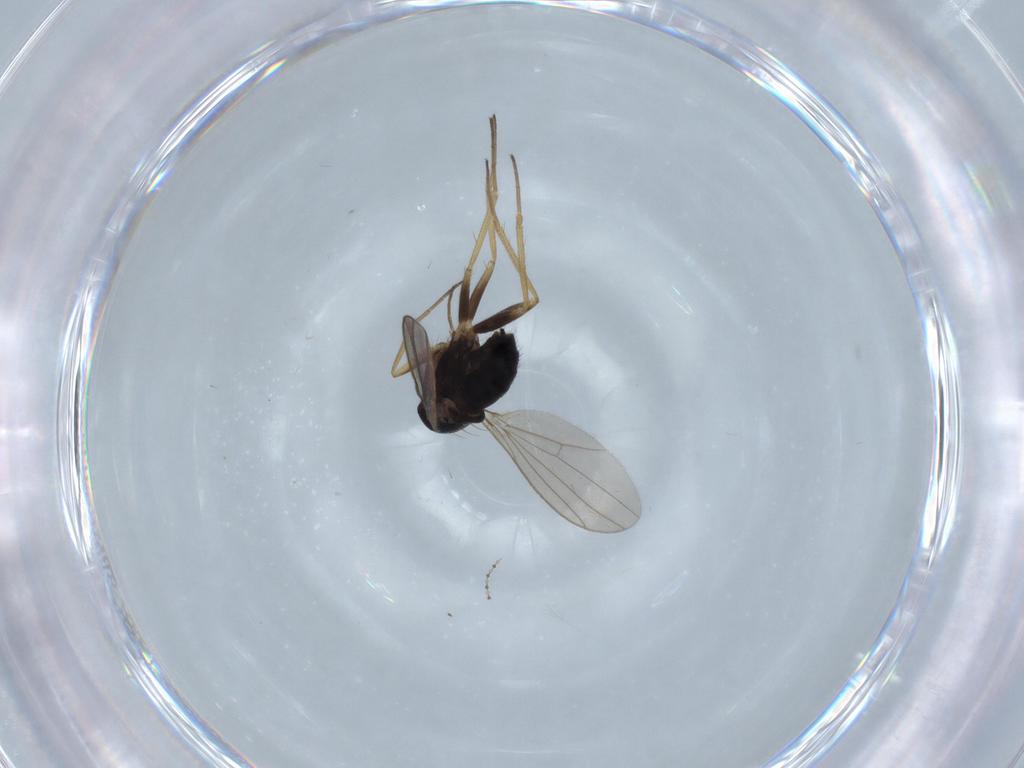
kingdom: Animalia
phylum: Arthropoda
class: Insecta
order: Diptera
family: Dolichopodidae
